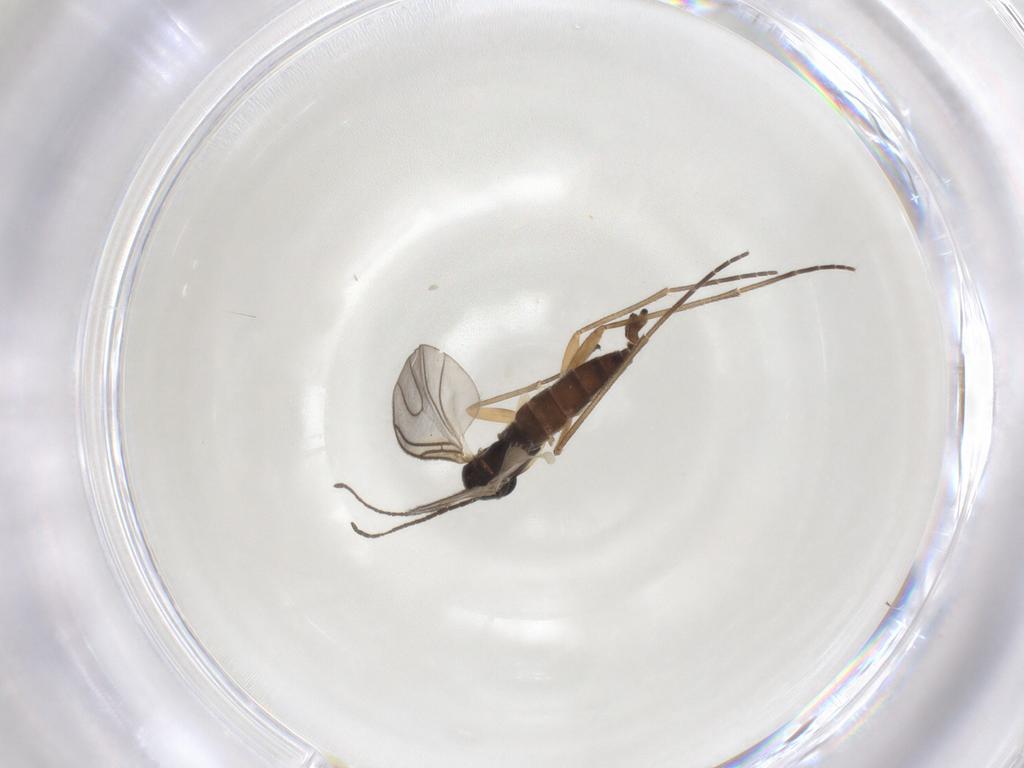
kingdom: Animalia
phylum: Arthropoda
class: Insecta
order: Diptera
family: Sciaridae
